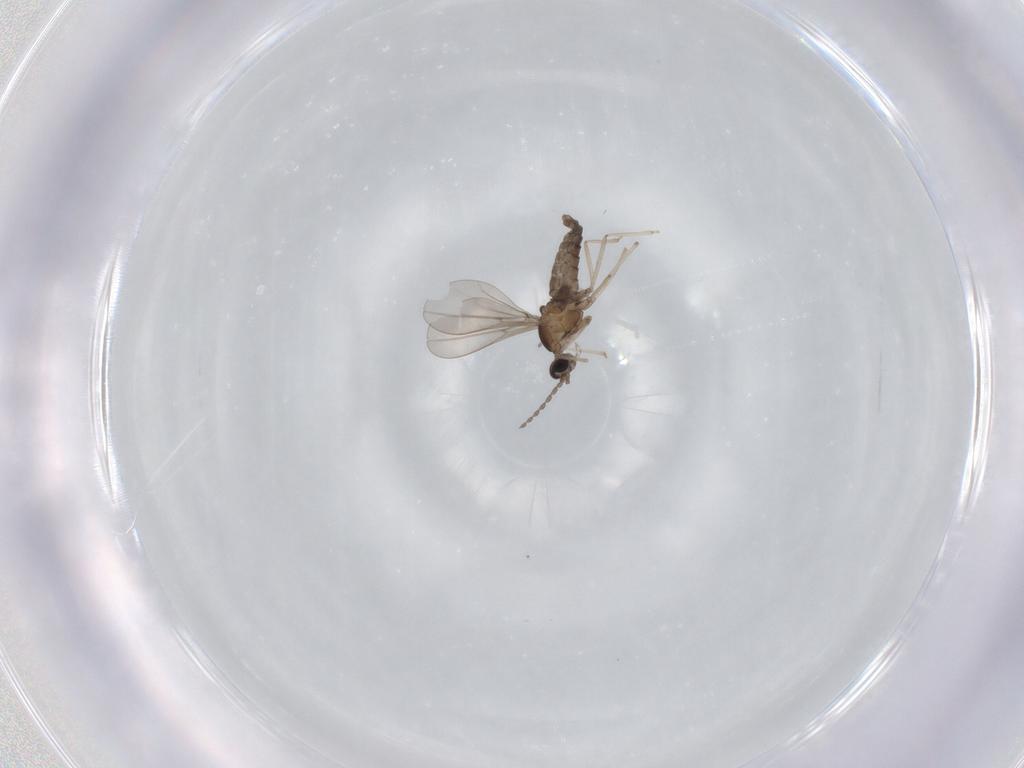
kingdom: Animalia
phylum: Arthropoda
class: Insecta
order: Diptera
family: Cecidomyiidae
